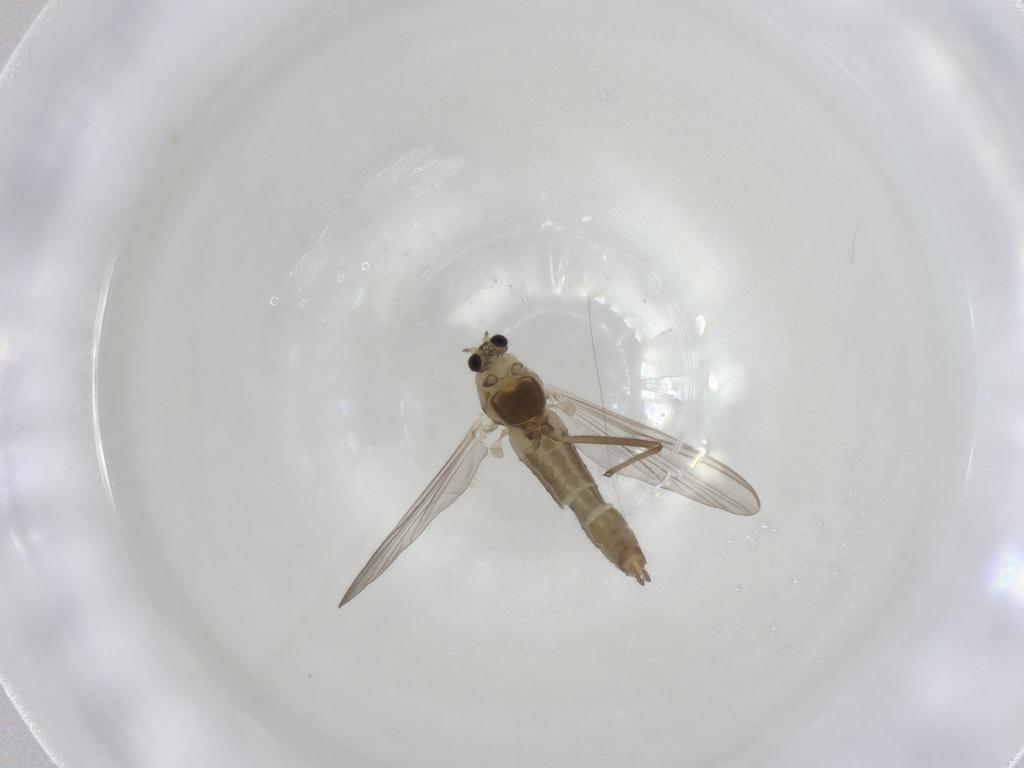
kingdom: Animalia
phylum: Arthropoda
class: Insecta
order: Diptera
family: Chironomidae
